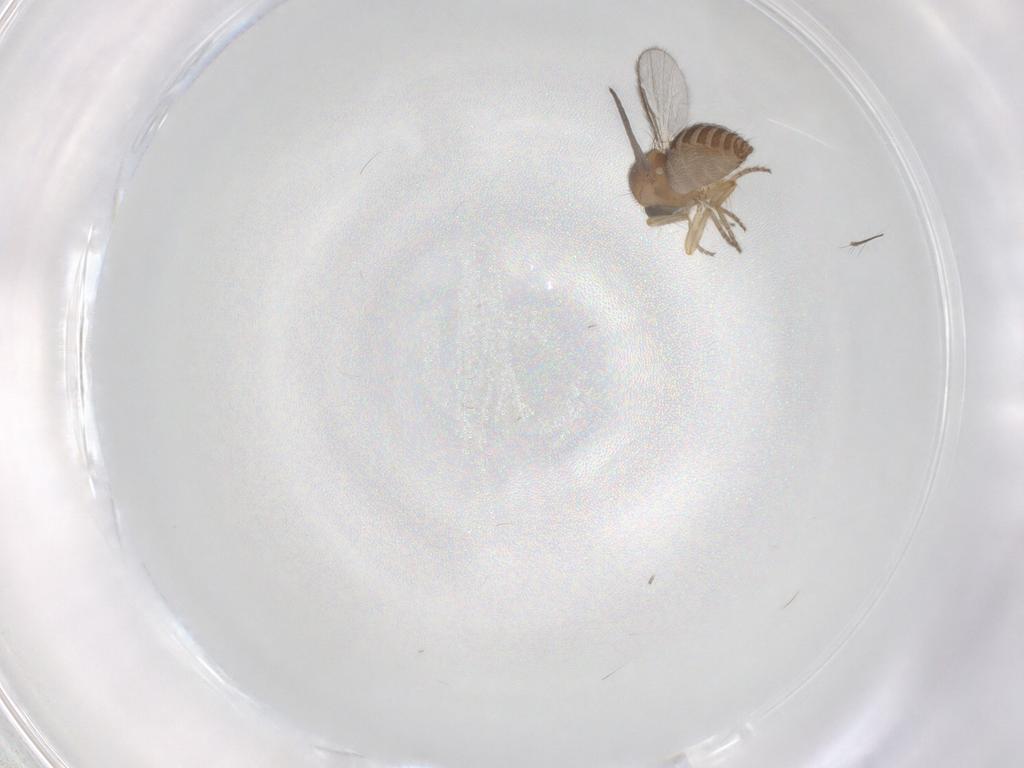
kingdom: Animalia
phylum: Arthropoda
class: Insecta
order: Diptera
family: Ceratopogonidae
